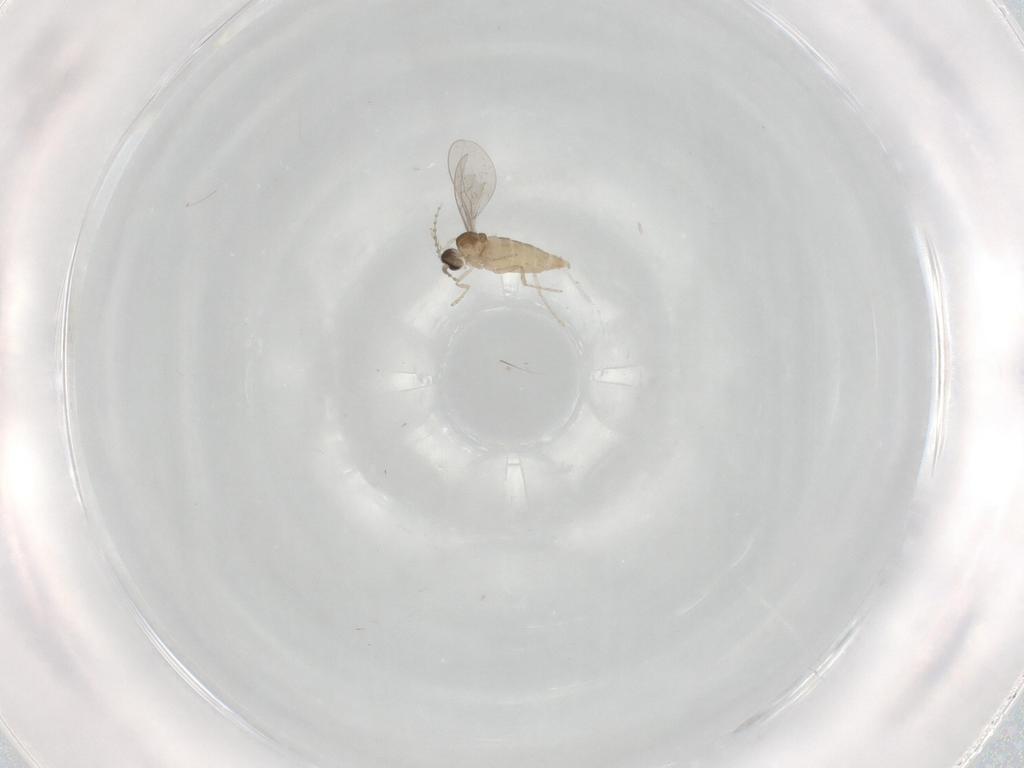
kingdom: Animalia
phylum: Arthropoda
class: Insecta
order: Diptera
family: Cecidomyiidae
